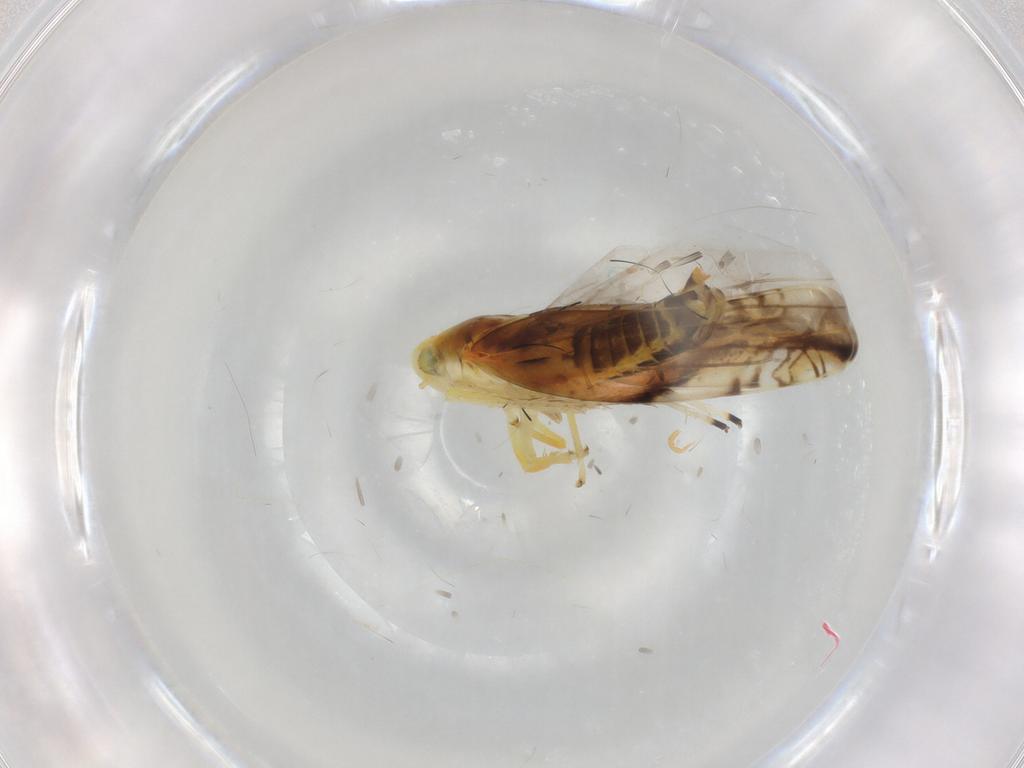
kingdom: Animalia
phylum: Arthropoda
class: Insecta
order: Hemiptera
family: Cicadellidae
